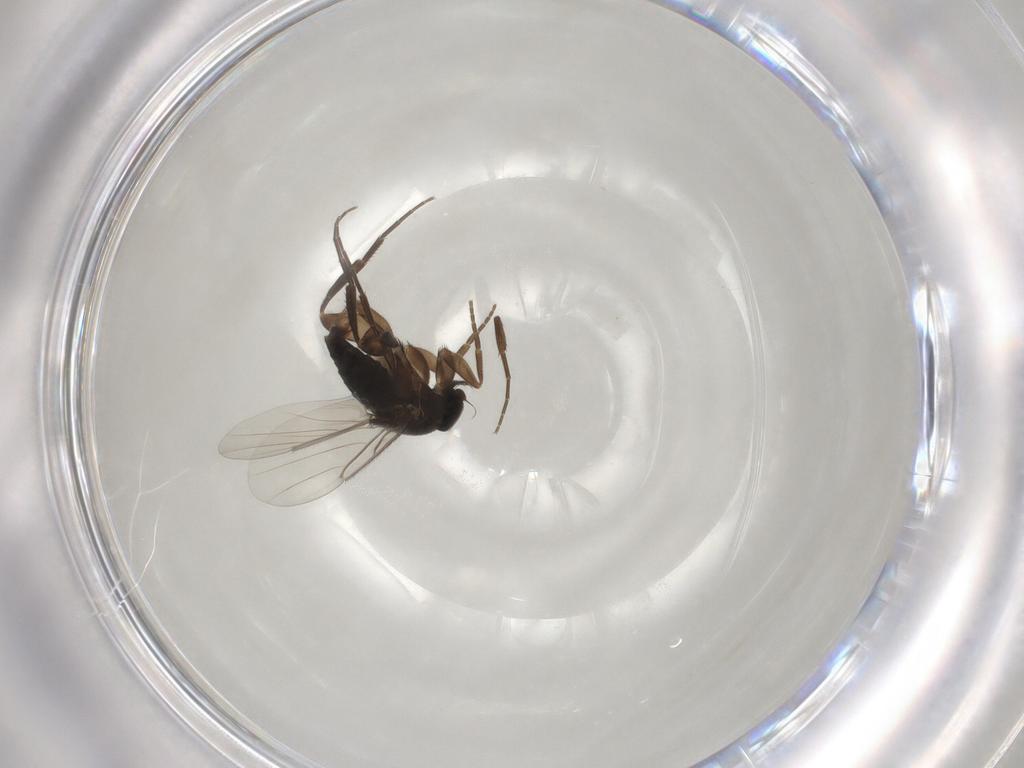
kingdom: Animalia
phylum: Arthropoda
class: Insecta
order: Diptera
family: Phoridae
